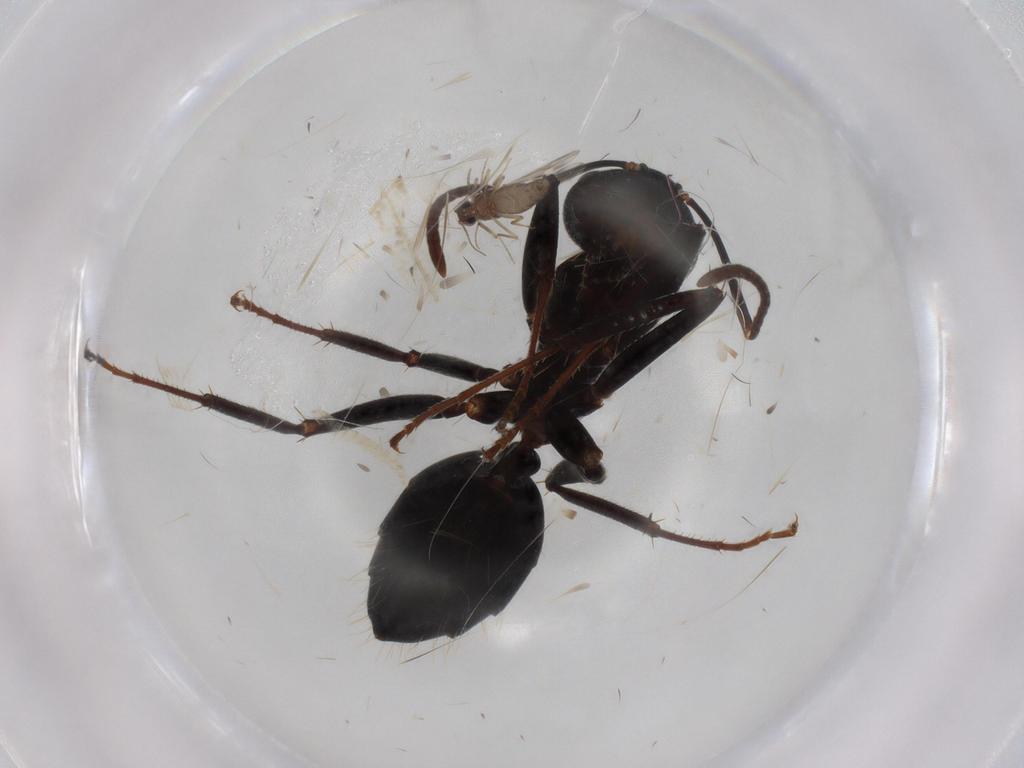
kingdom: Animalia
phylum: Arthropoda
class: Insecta
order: Hymenoptera
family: Formicidae
